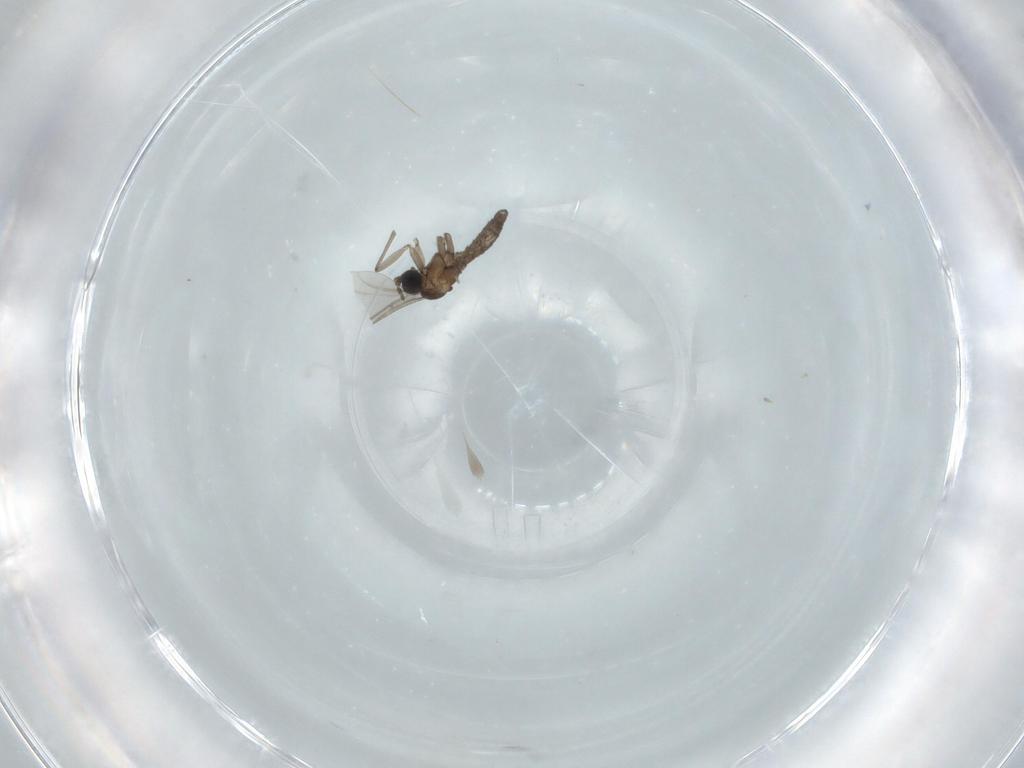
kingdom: Animalia
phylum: Arthropoda
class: Insecta
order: Diptera
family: Sciaridae
